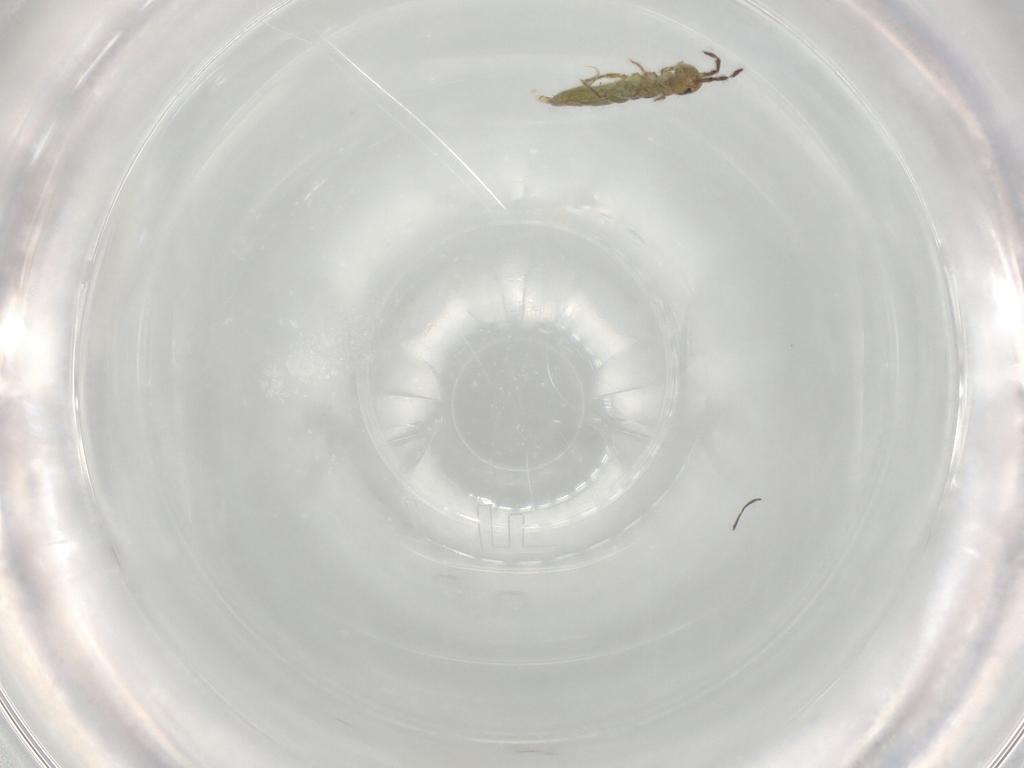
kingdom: Animalia
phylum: Arthropoda
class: Collembola
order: Entomobryomorpha
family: Isotomidae
